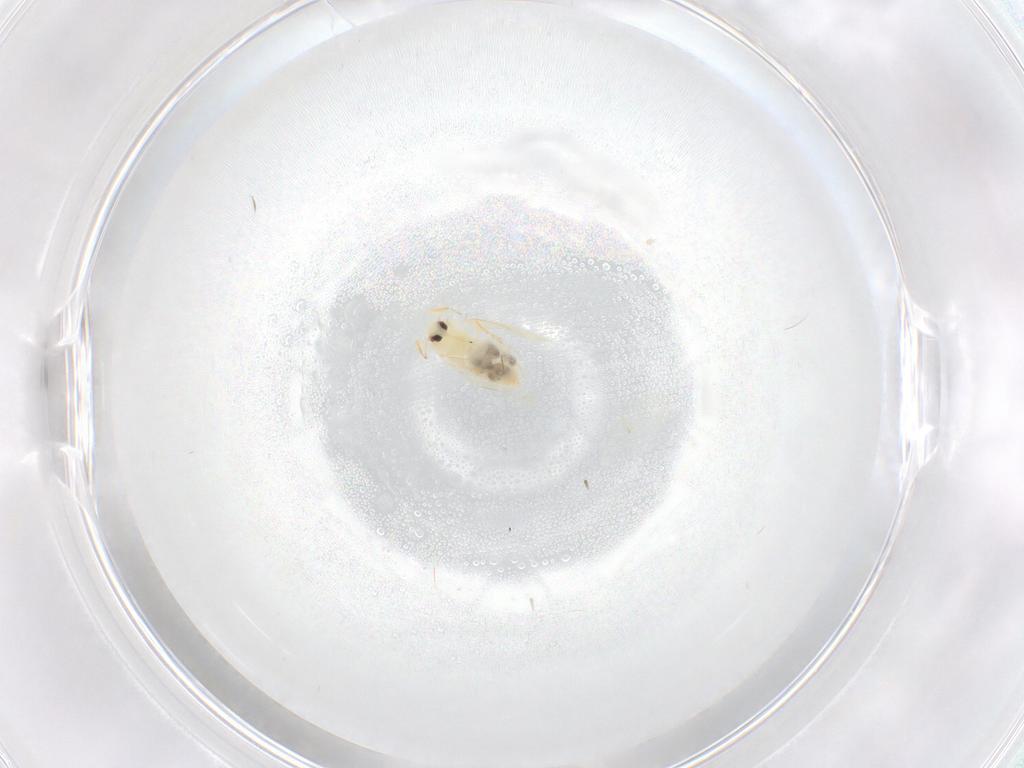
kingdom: Animalia
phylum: Arthropoda
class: Insecta
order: Hemiptera
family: Aleyrodidae
